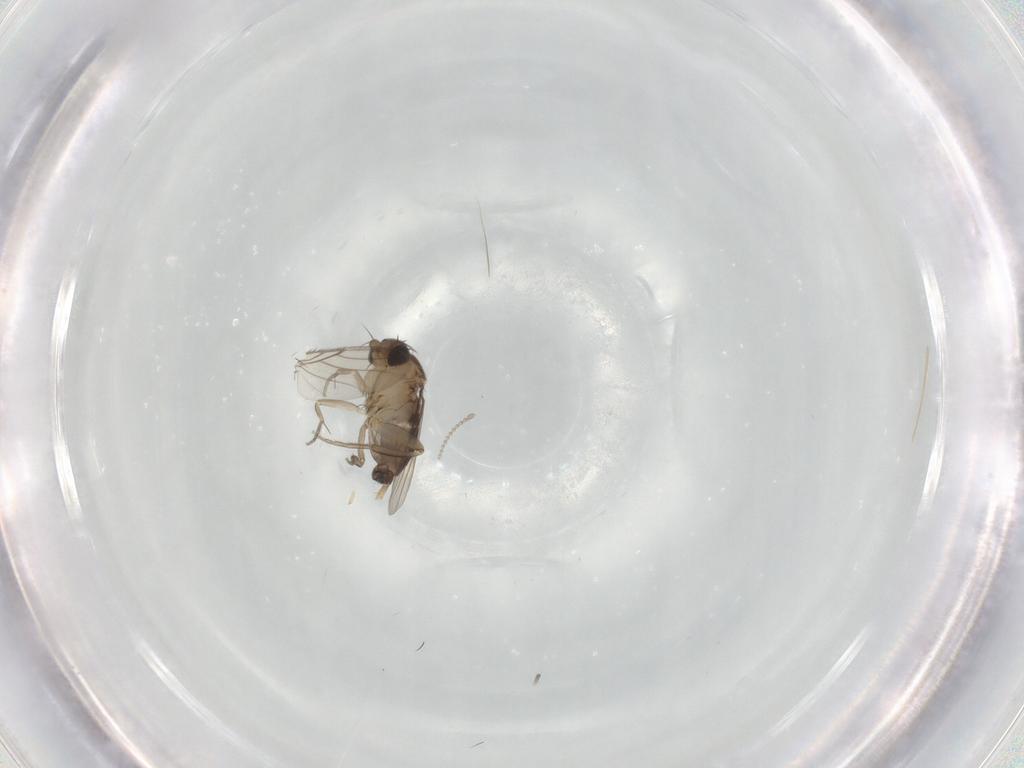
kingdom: Animalia
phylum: Arthropoda
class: Insecta
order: Diptera
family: Phoridae
